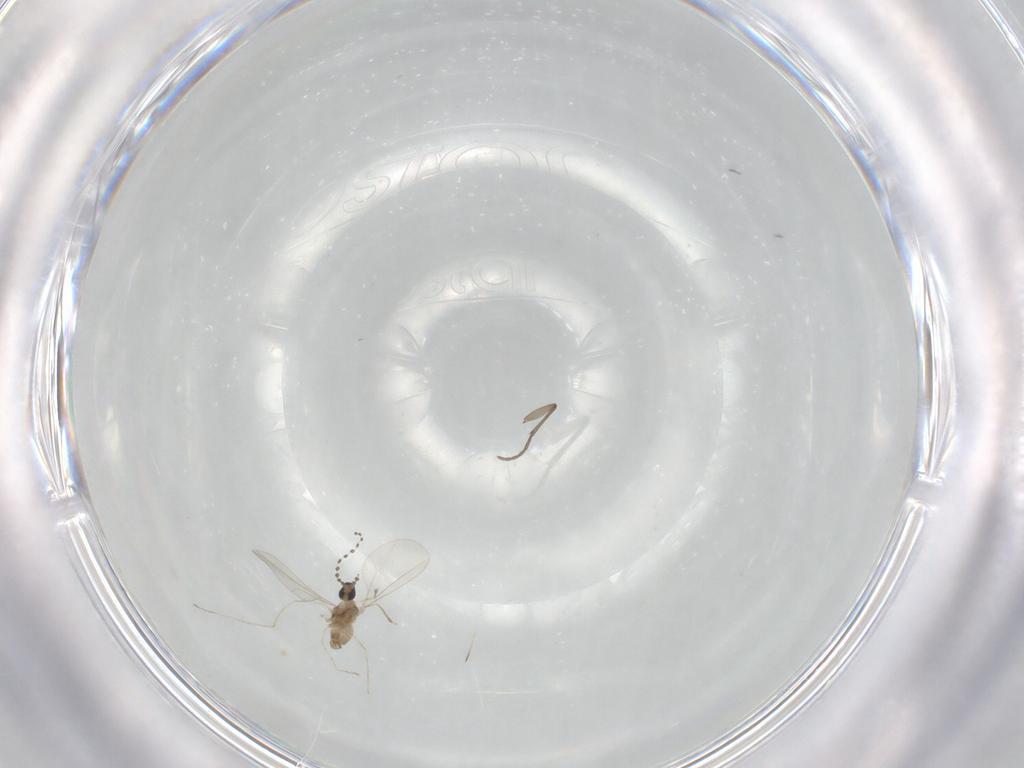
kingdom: Animalia
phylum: Arthropoda
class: Insecta
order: Diptera
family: Cecidomyiidae
